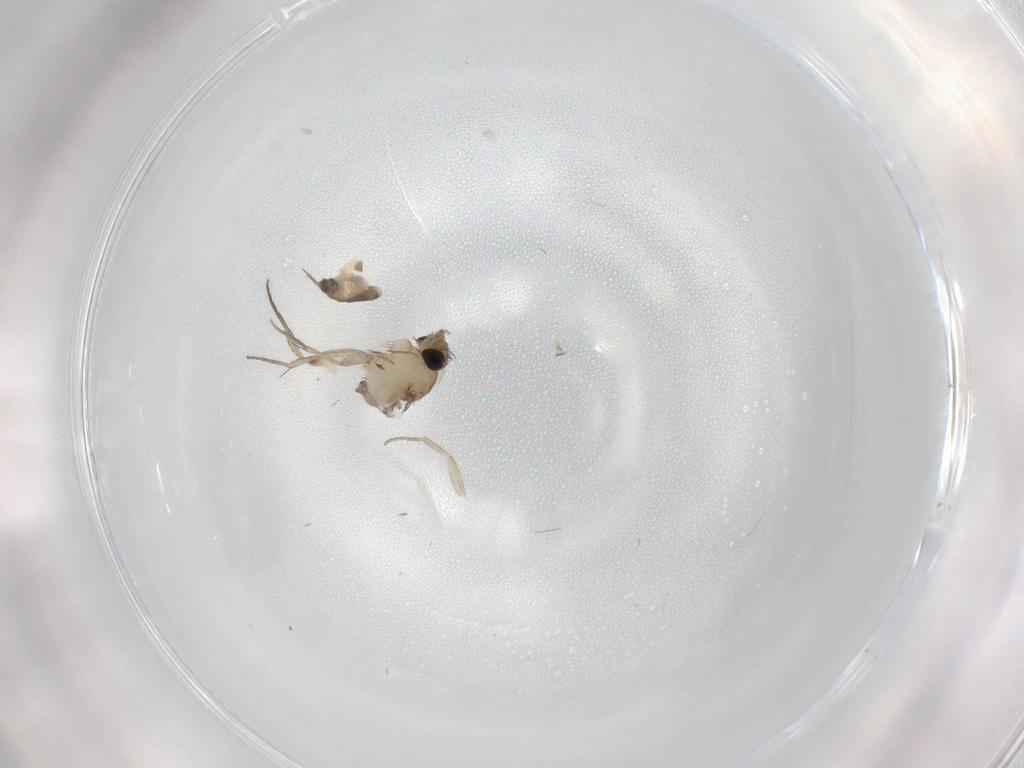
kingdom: Animalia
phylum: Arthropoda
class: Insecta
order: Diptera
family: Phoridae
